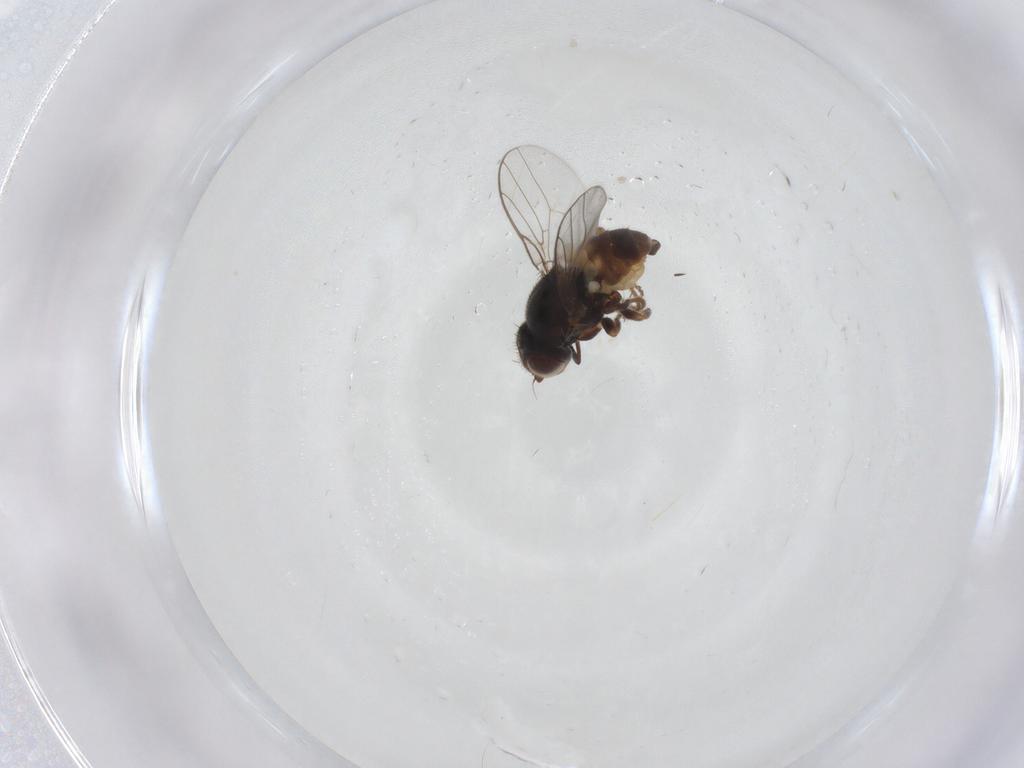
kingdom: Animalia
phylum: Arthropoda
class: Insecta
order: Diptera
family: Chloropidae
